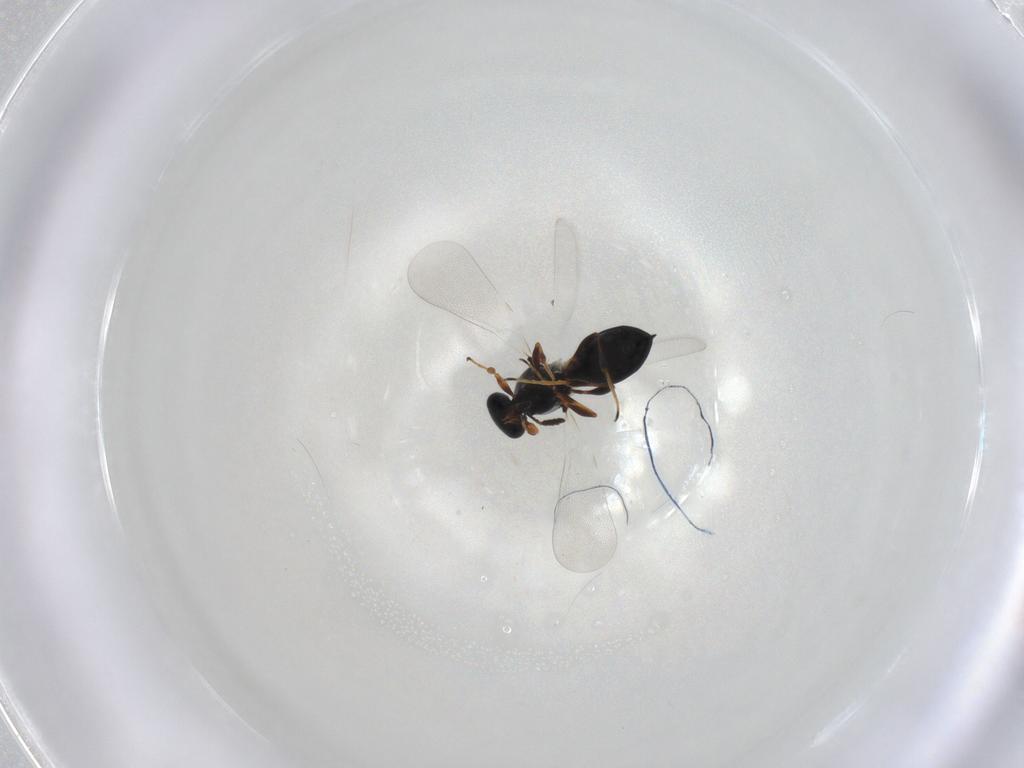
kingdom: Animalia
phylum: Arthropoda
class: Insecta
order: Hymenoptera
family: Platygastridae
